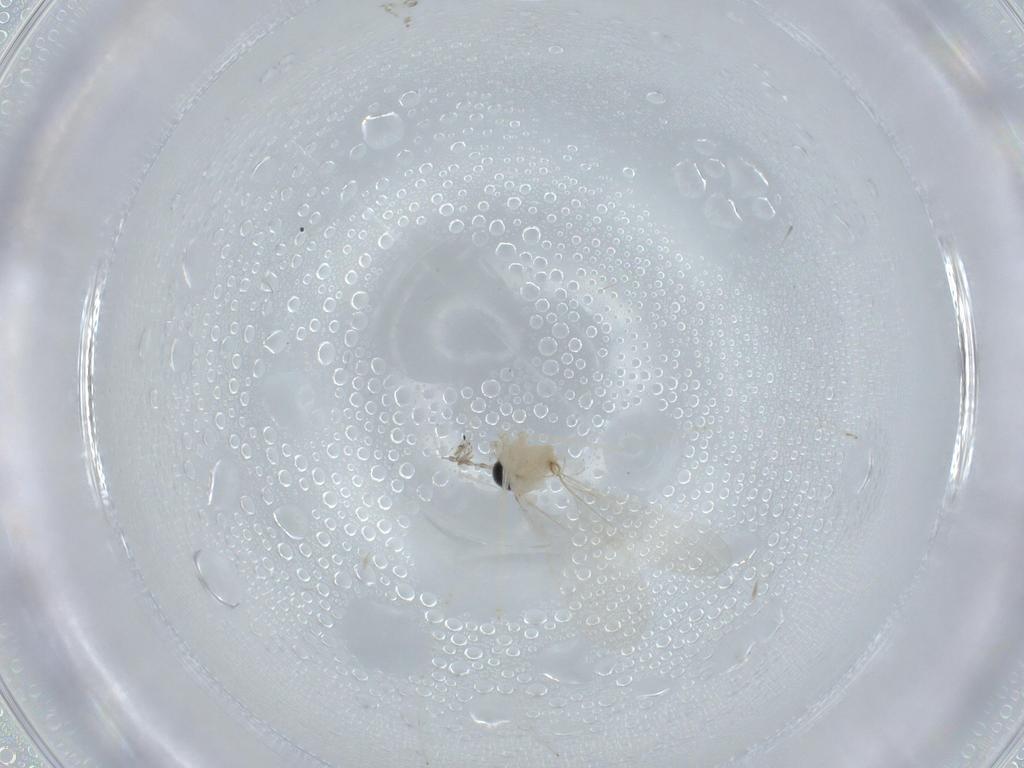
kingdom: Animalia
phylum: Arthropoda
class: Insecta
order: Diptera
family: Cecidomyiidae
